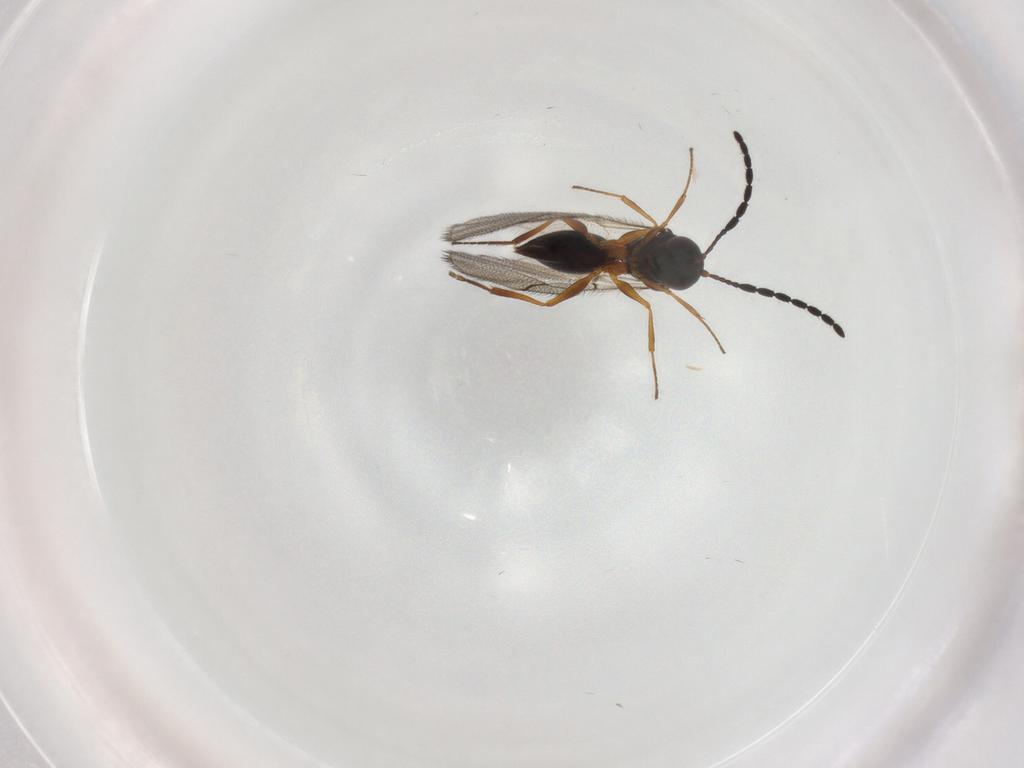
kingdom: Animalia
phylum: Arthropoda
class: Insecta
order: Hymenoptera
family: Figitidae
